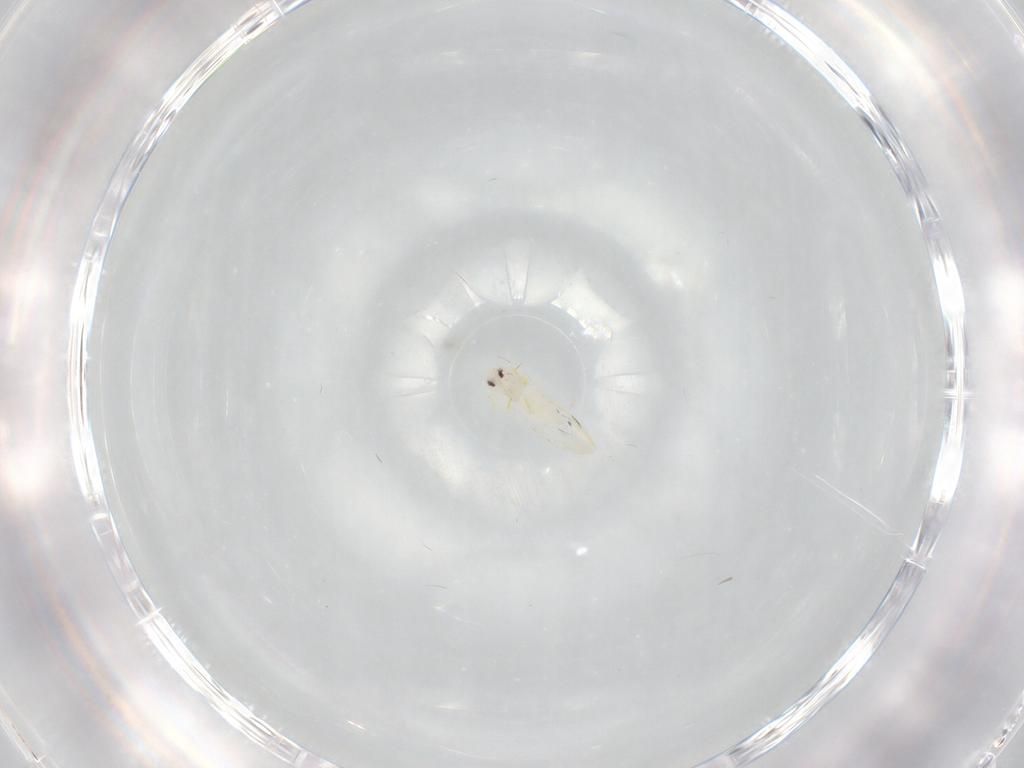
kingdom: Animalia
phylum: Arthropoda
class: Insecta
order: Hemiptera
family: Aleyrodidae
